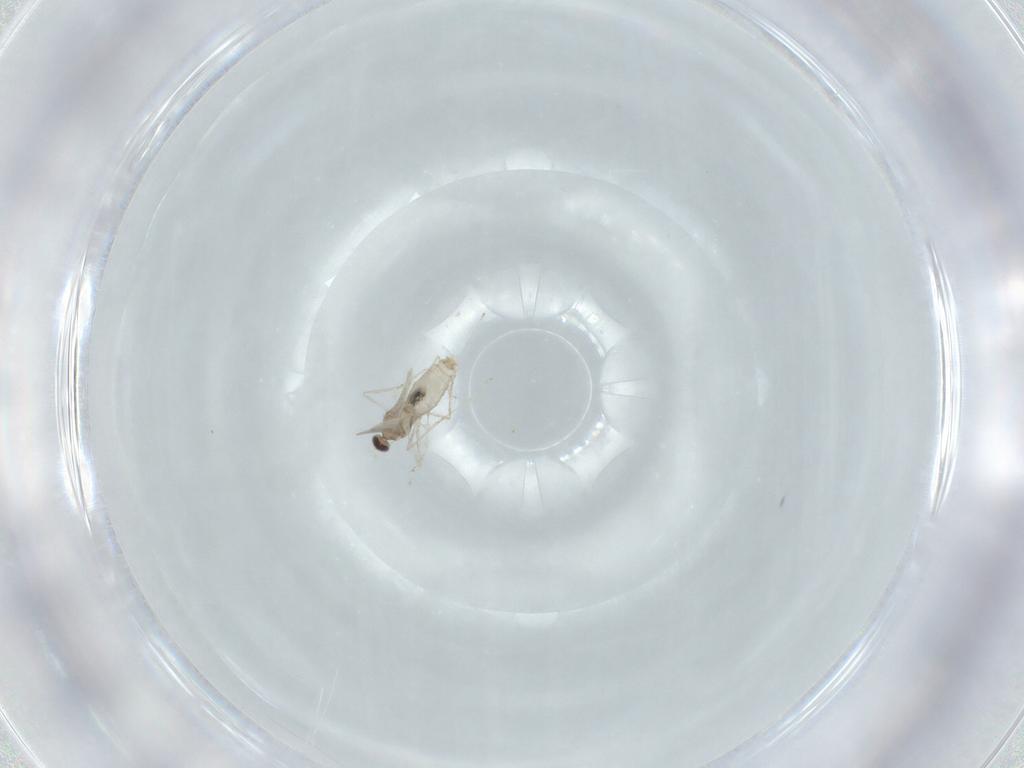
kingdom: Animalia
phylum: Arthropoda
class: Insecta
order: Diptera
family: Cecidomyiidae
